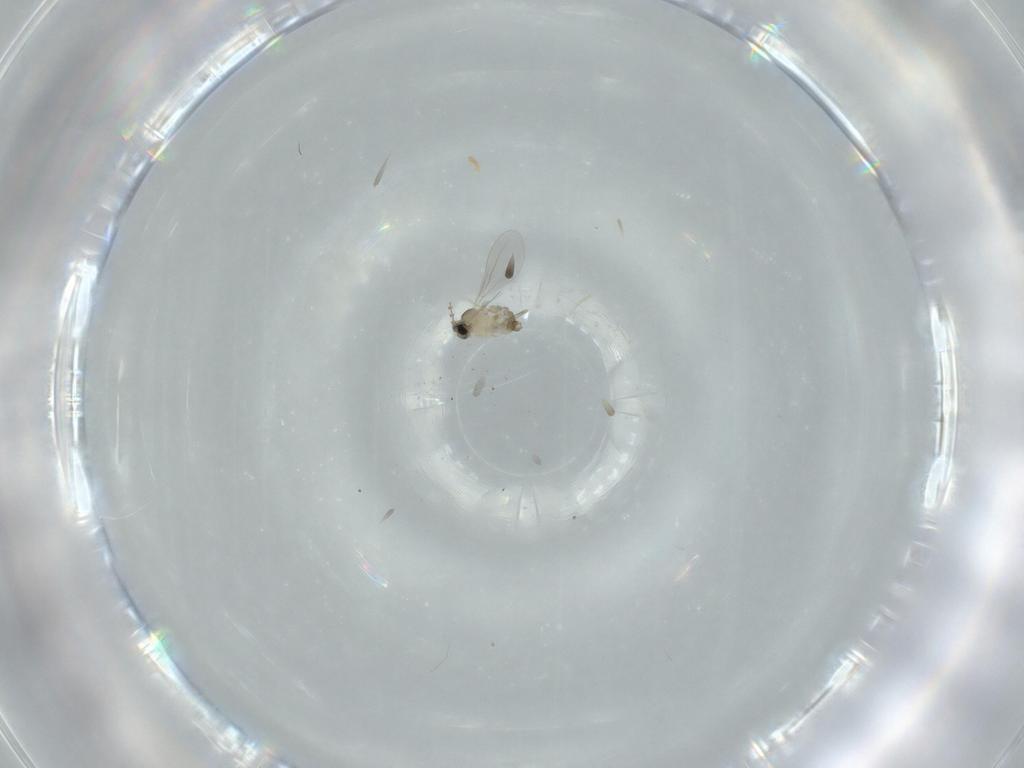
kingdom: Animalia
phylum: Arthropoda
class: Insecta
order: Diptera
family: Cecidomyiidae
